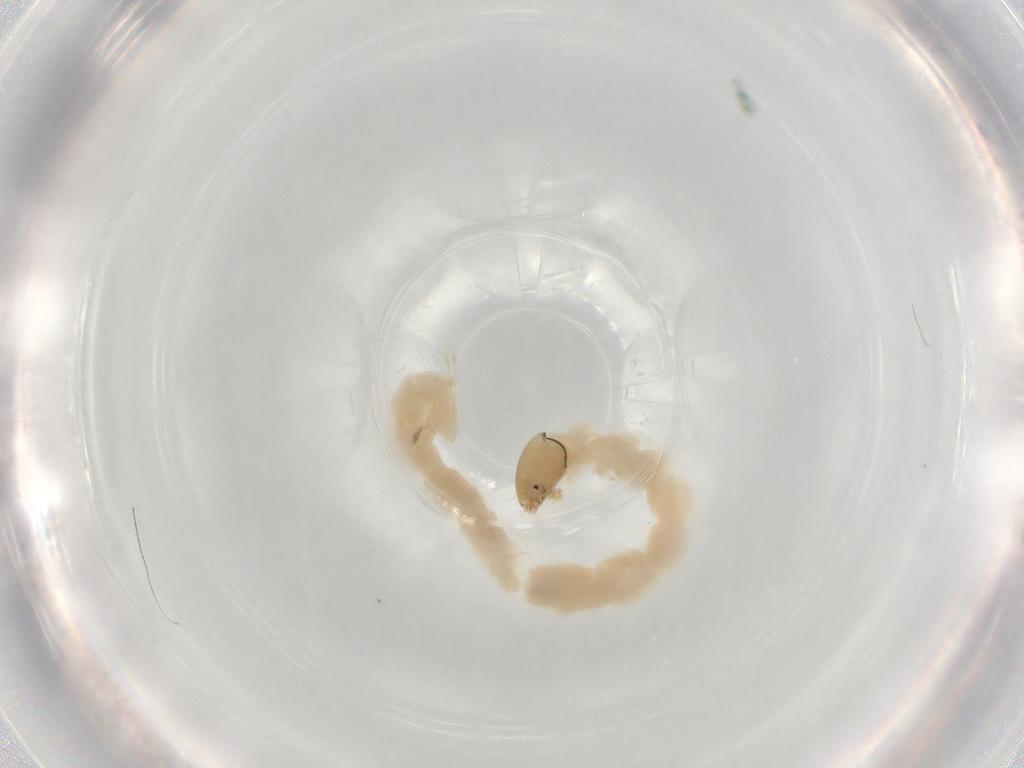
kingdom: Animalia
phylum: Arthropoda
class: Insecta
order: Diptera
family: Chironomidae
